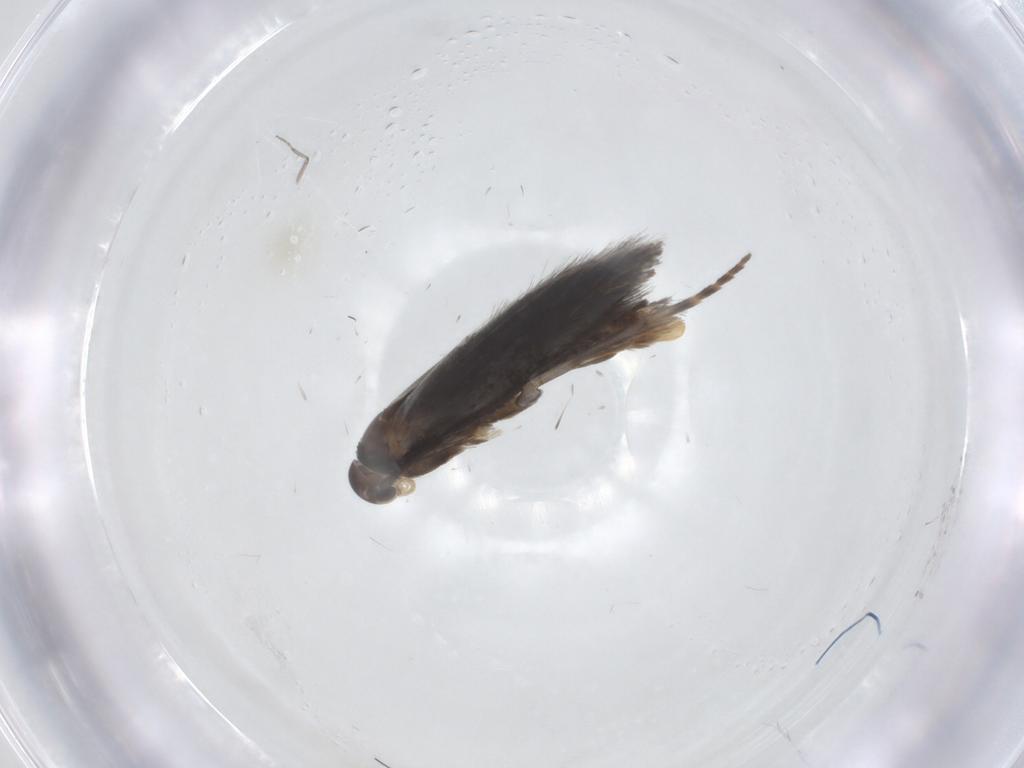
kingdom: Animalia
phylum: Arthropoda
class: Insecta
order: Lepidoptera
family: Elachistidae
